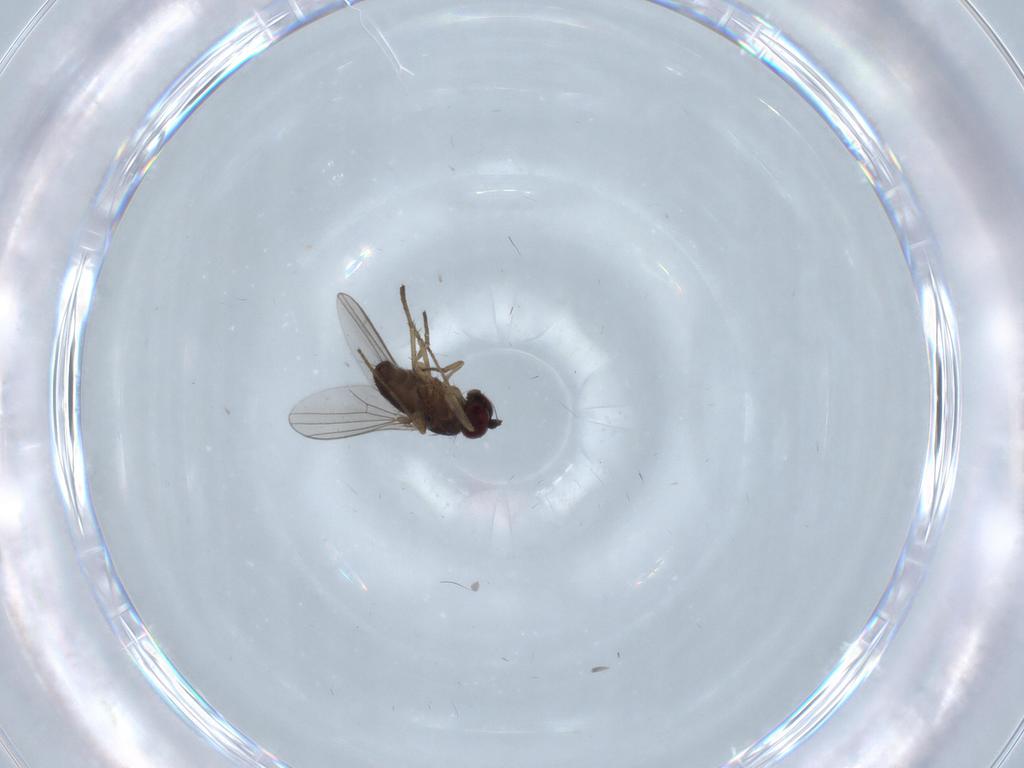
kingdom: Animalia
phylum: Arthropoda
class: Insecta
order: Diptera
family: Dolichopodidae
